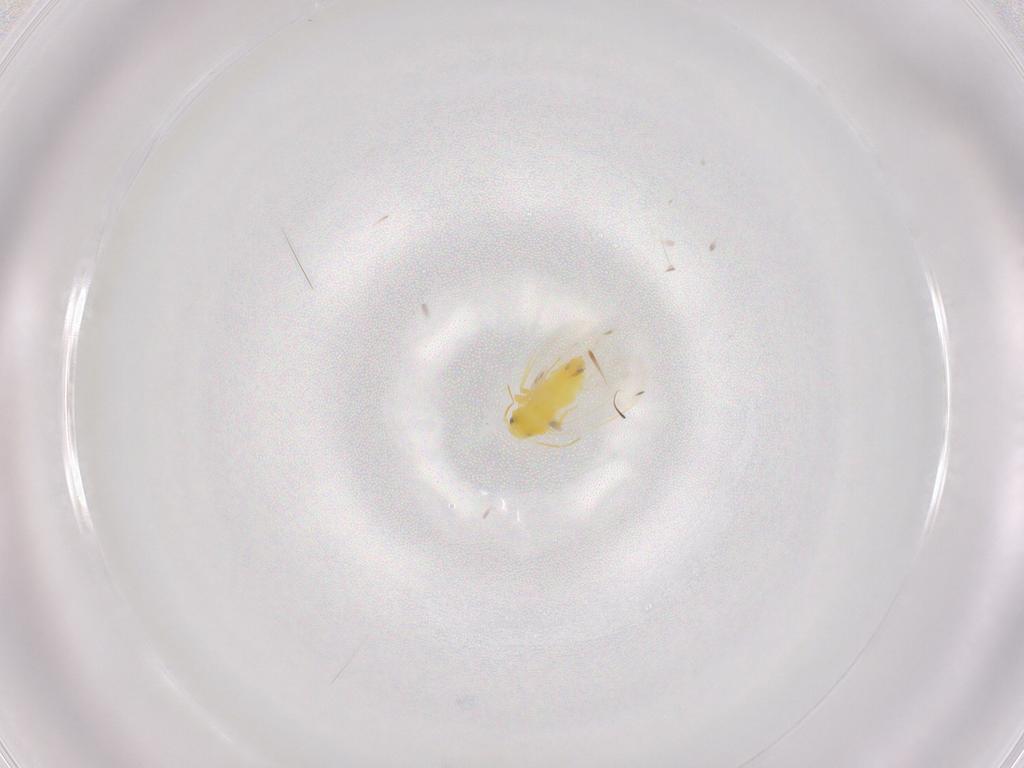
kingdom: Animalia
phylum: Arthropoda
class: Insecta
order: Hemiptera
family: Aleyrodidae
